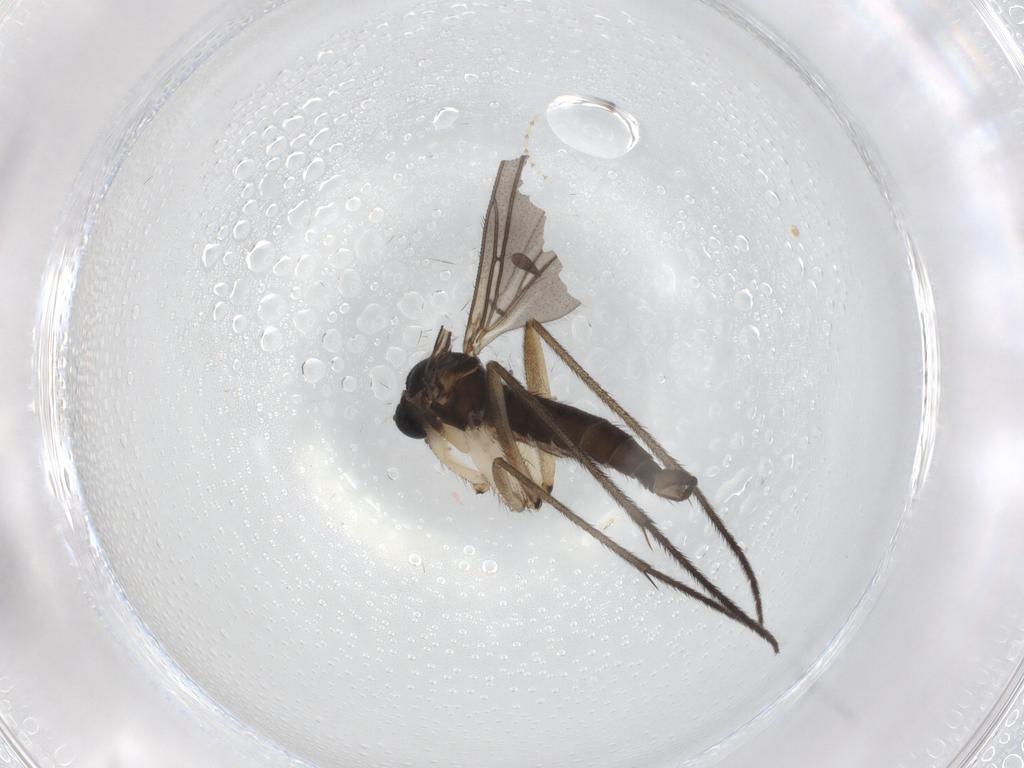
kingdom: Animalia
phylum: Arthropoda
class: Insecta
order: Diptera
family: Sciaridae
